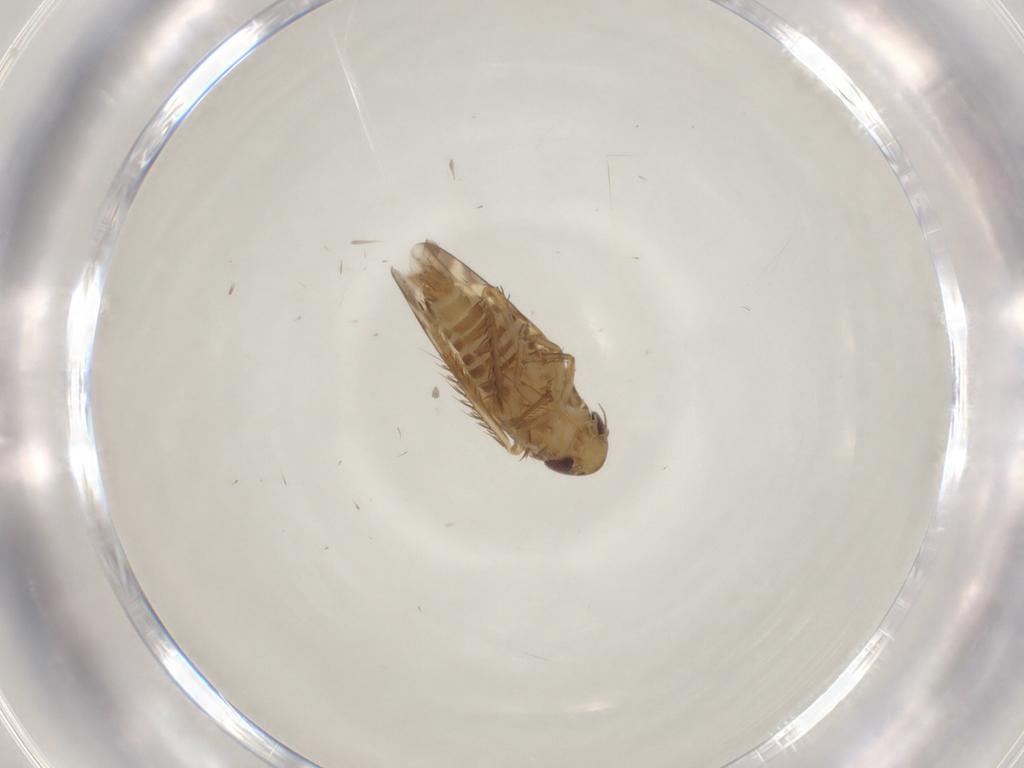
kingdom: Animalia
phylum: Arthropoda
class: Insecta
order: Hemiptera
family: Cicadellidae
